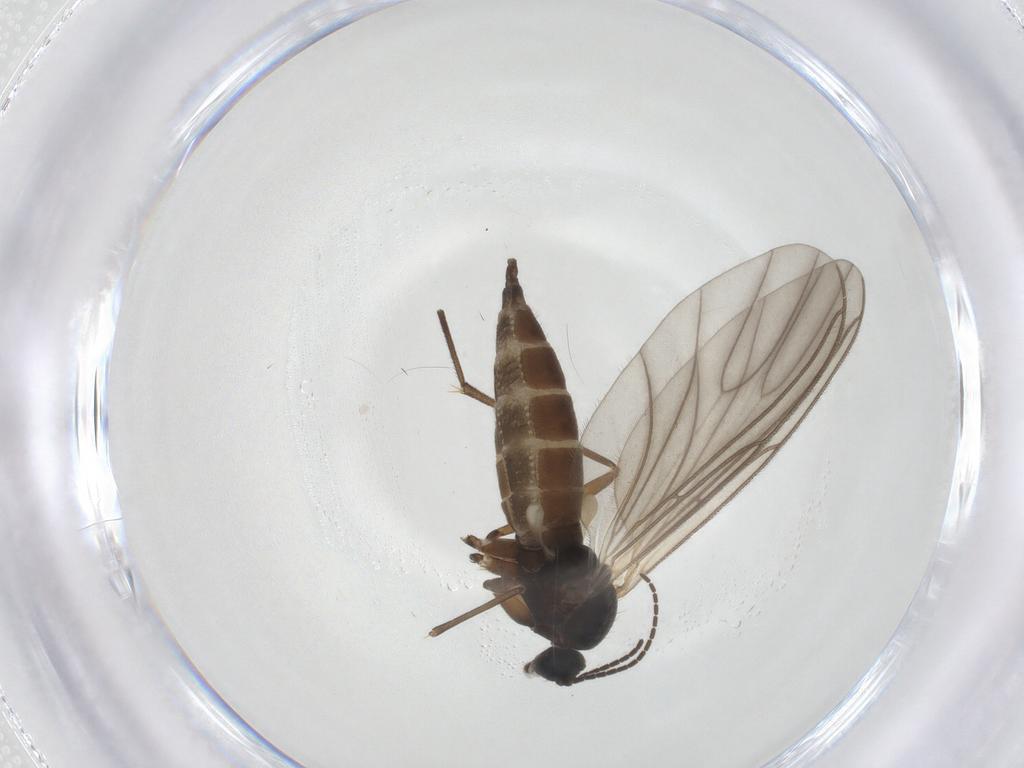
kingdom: Animalia
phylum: Arthropoda
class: Insecta
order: Diptera
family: Sciaridae
